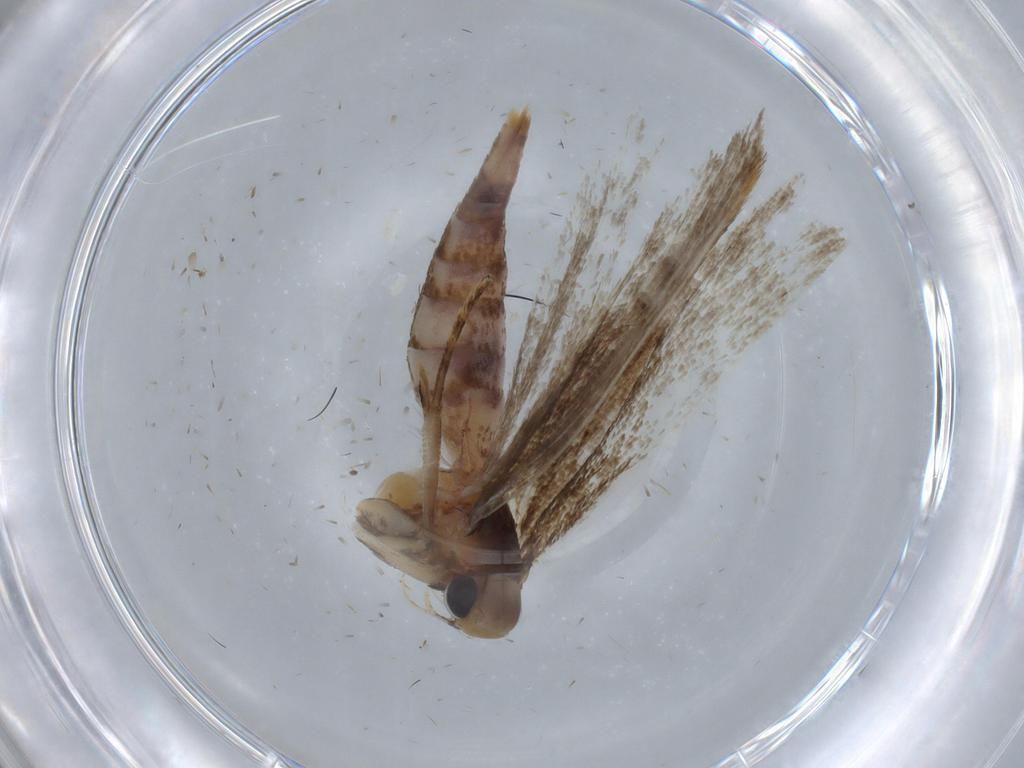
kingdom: Animalia
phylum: Arthropoda
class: Insecta
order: Lepidoptera
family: Gelechiidae
